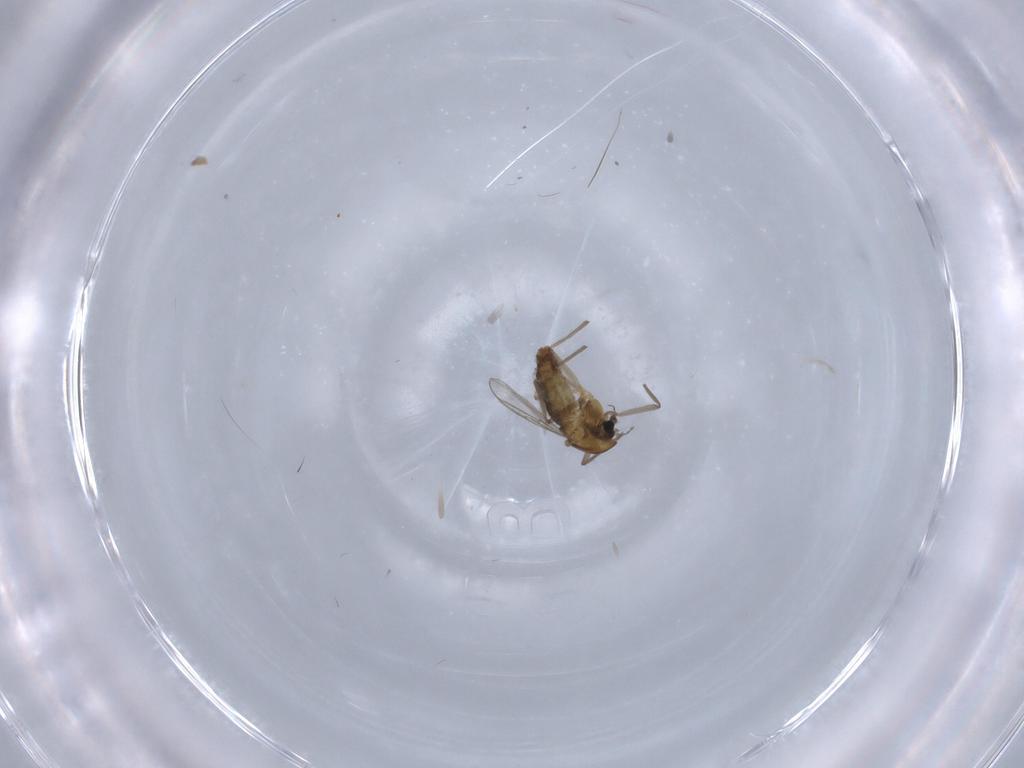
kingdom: Animalia
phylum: Arthropoda
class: Insecta
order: Diptera
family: Chironomidae
